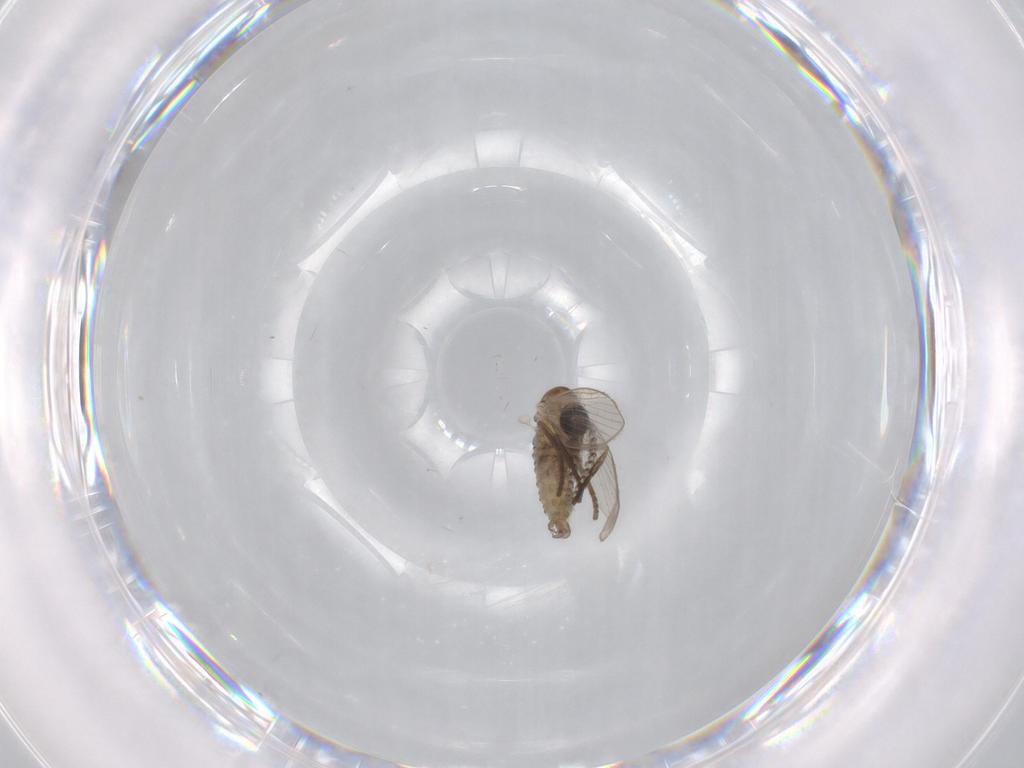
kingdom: Animalia
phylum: Arthropoda
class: Insecta
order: Diptera
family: Psychodidae
